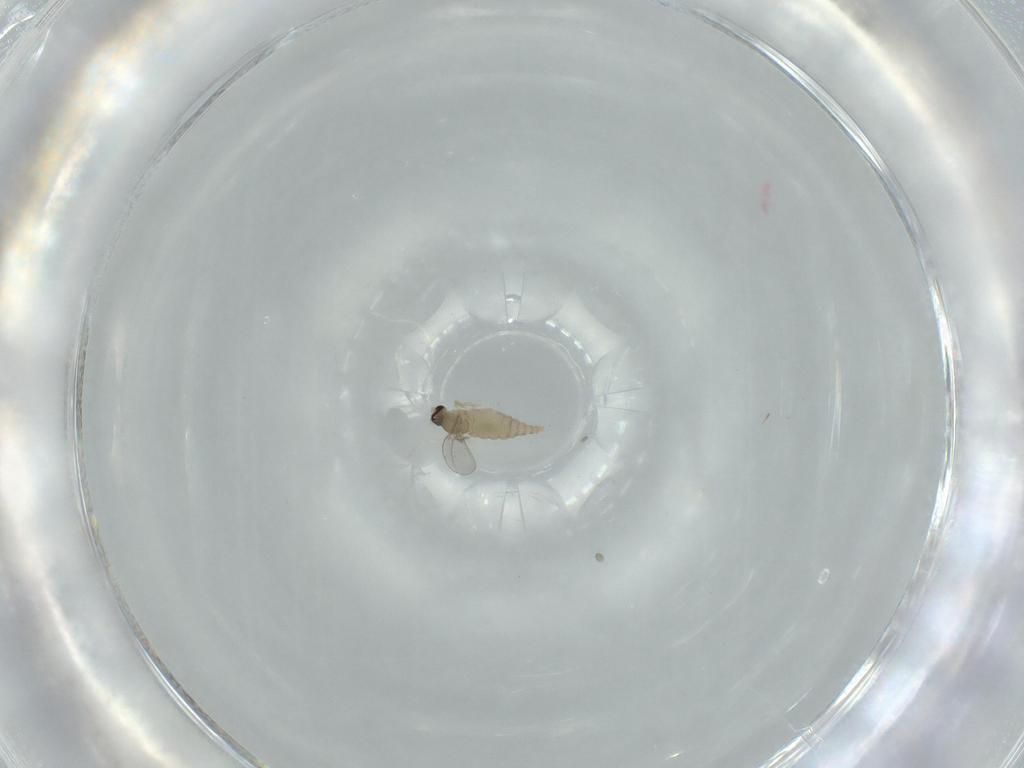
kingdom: Animalia
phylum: Arthropoda
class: Insecta
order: Diptera
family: Cecidomyiidae
